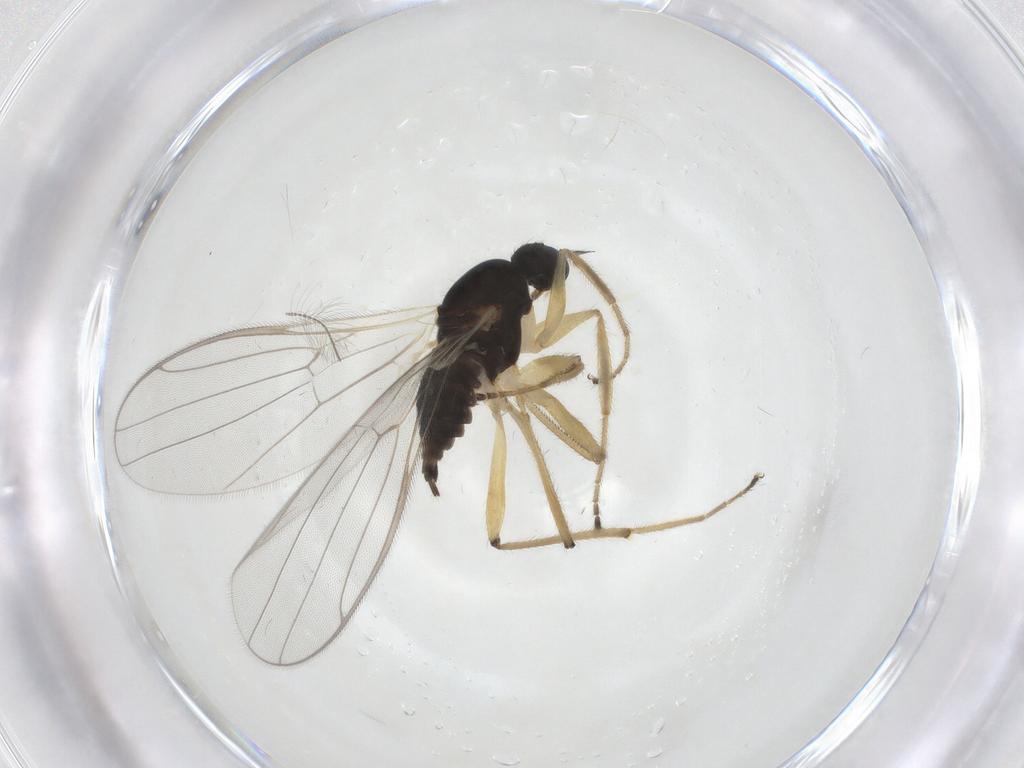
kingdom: Animalia
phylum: Arthropoda
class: Insecta
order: Diptera
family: Hybotidae
